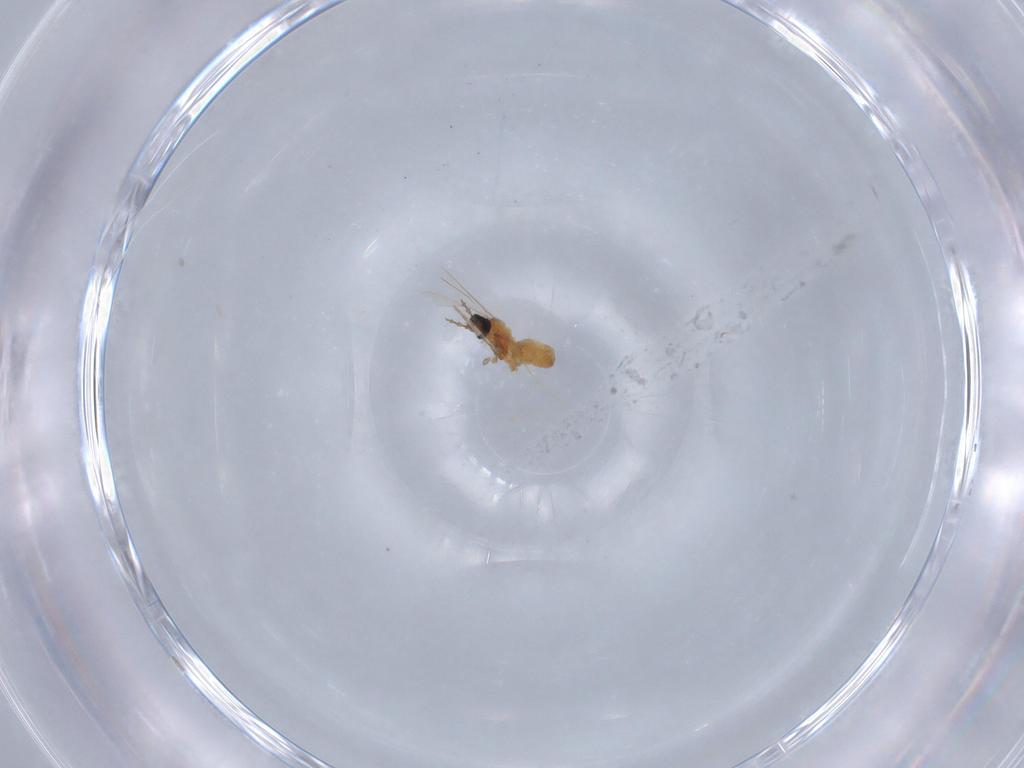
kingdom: Animalia
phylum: Arthropoda
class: Insecta
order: Diptera
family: Cecidomyiidae
